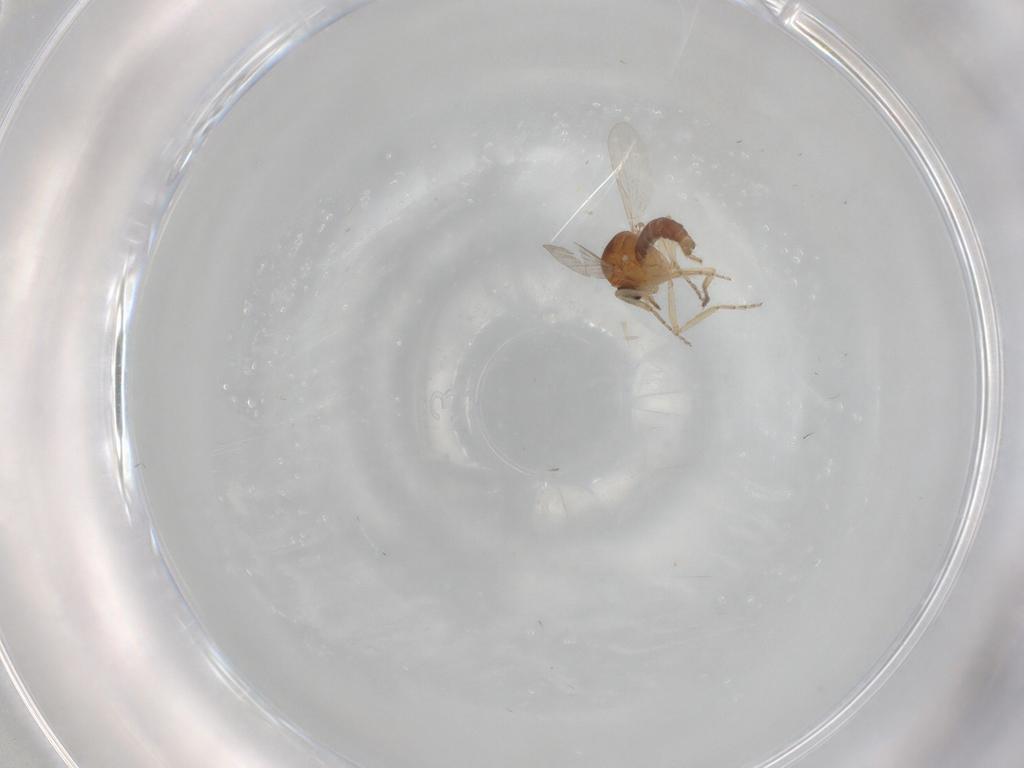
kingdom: Animalia
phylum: Arthropoda
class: Insecta
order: Diptera
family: Ceratopogonidae
